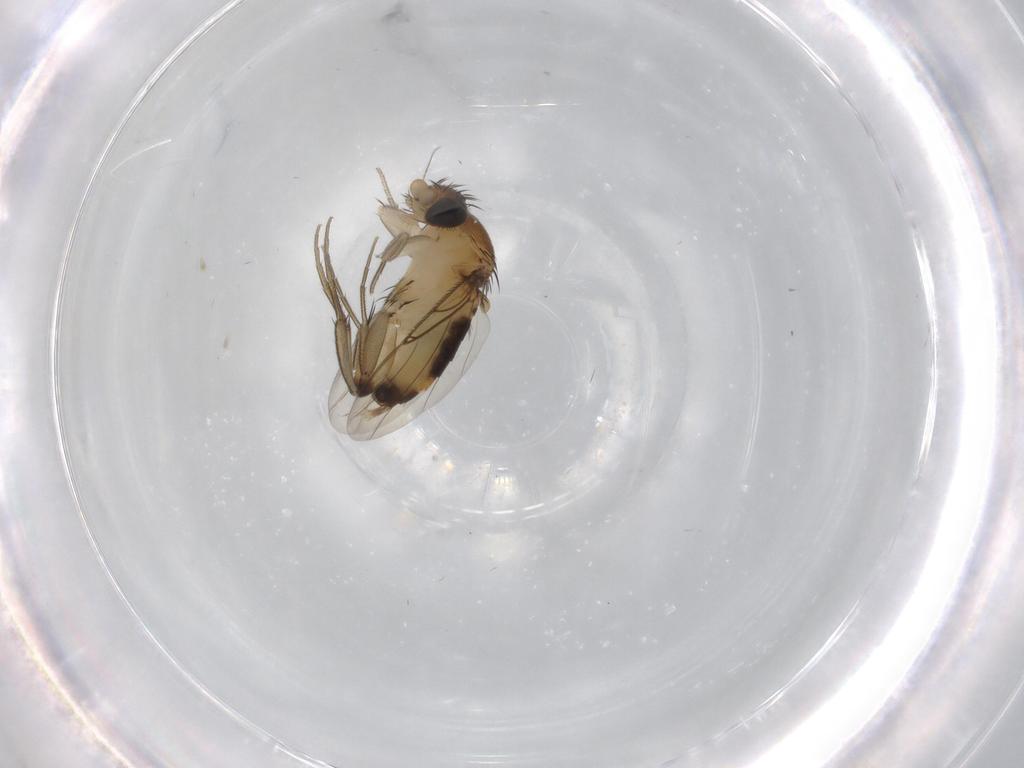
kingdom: Animalia
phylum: Arthropoda
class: Insecta
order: Diptera
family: Phoridae
